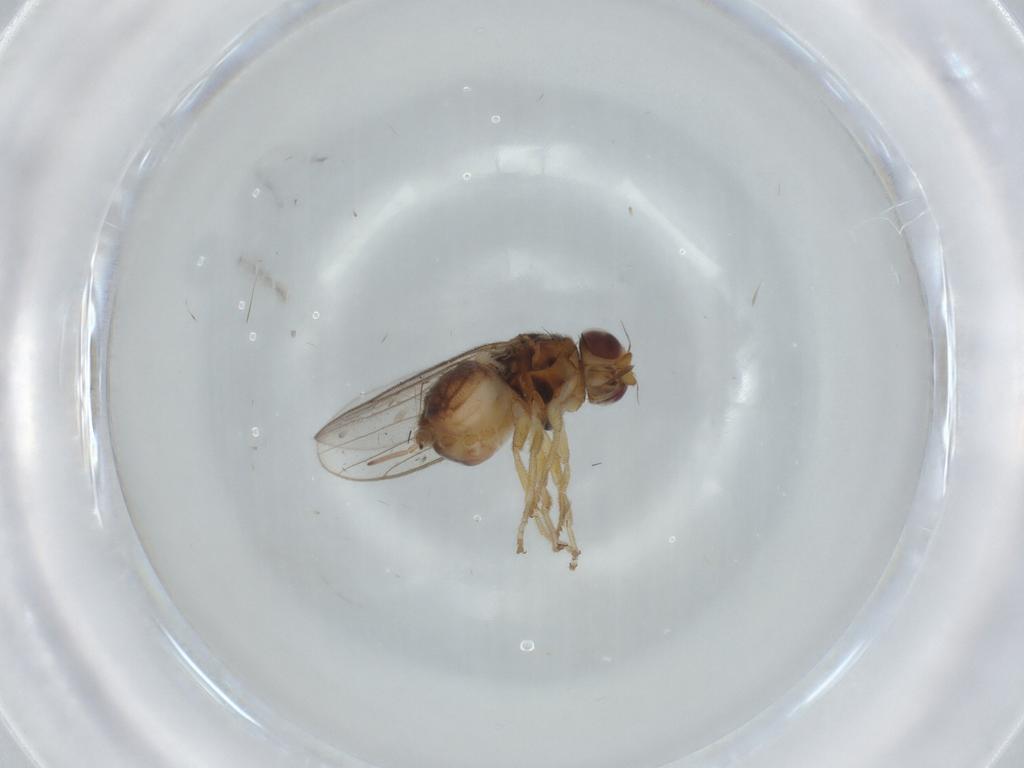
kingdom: Animalia
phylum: Arthropoda
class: Insecta
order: Diptera
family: Chloropidae
